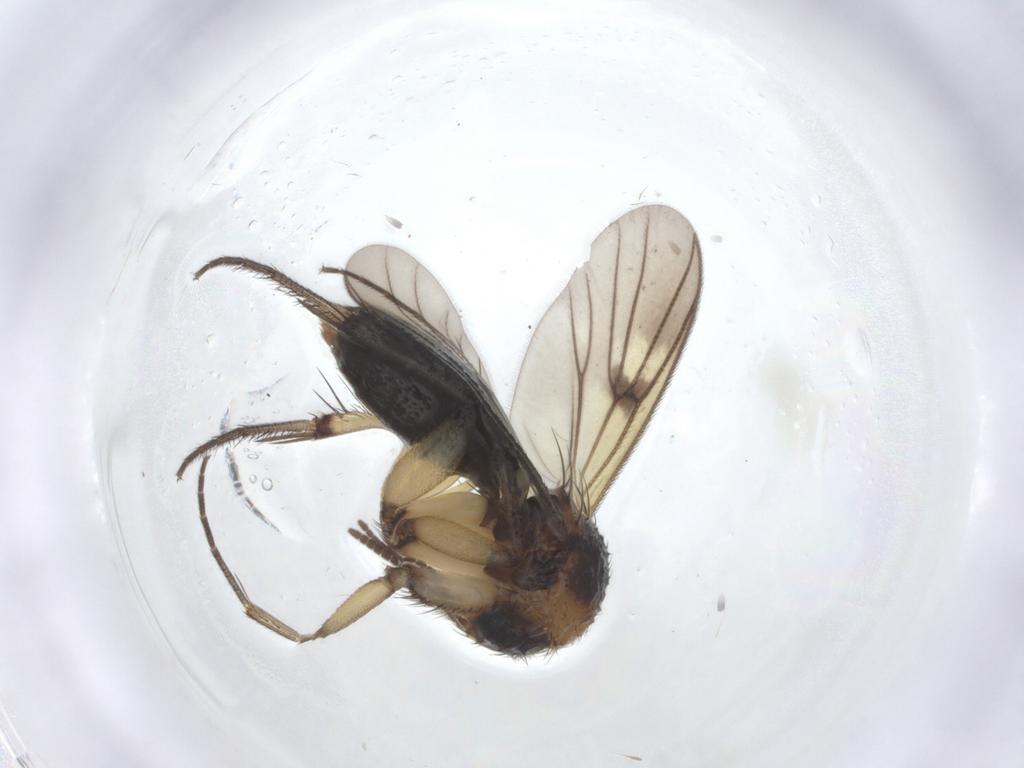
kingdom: Animalia
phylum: Arthropoda
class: Insecta
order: Diptera
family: Mycetophilidae
